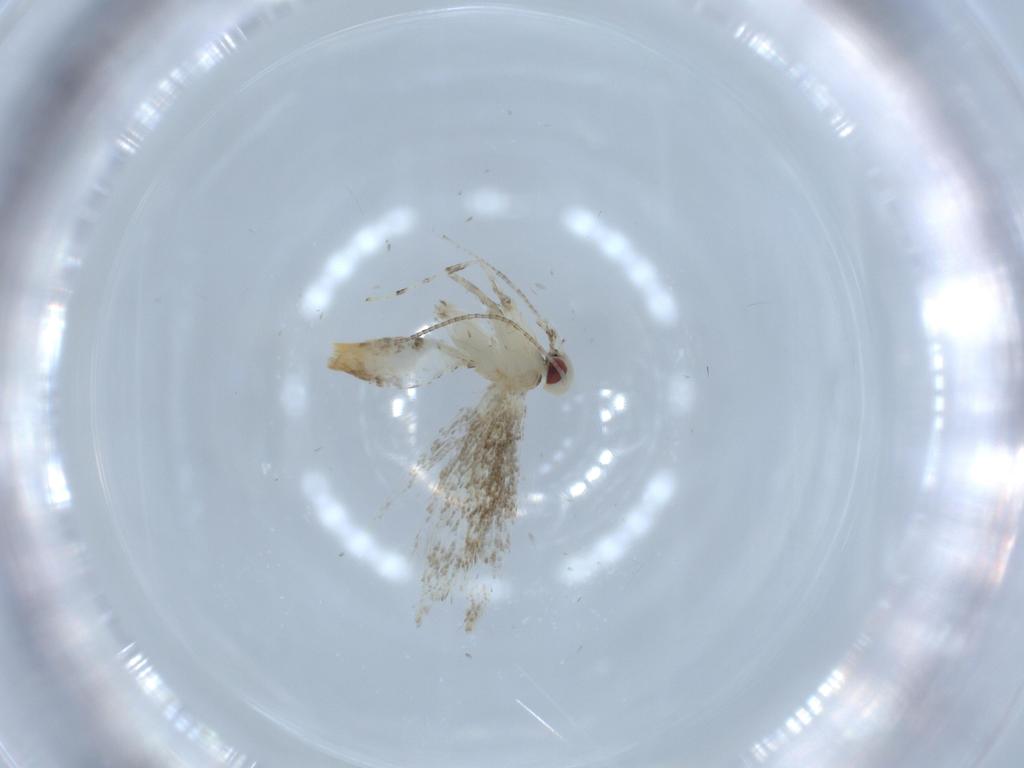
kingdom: Animalia
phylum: Arthropoda
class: Insecta
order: Lepidoptera
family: Gracillariidae
